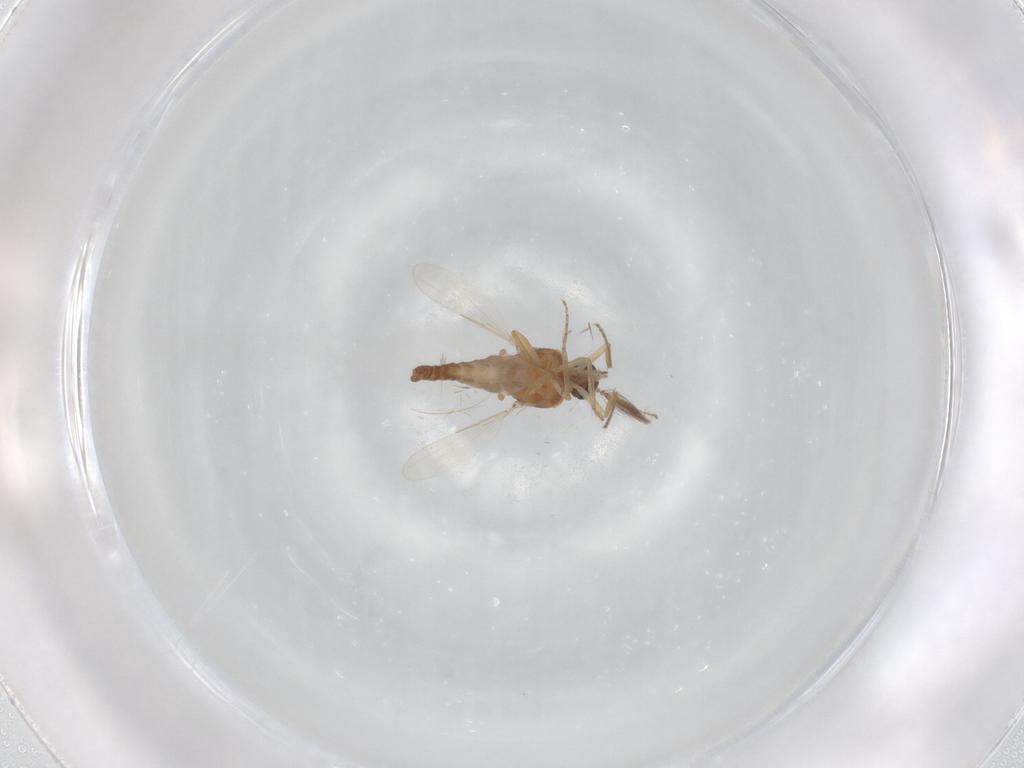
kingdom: Animalia
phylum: Arthropoda
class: Insecta
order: Diptera
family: Ceratopogonidae
